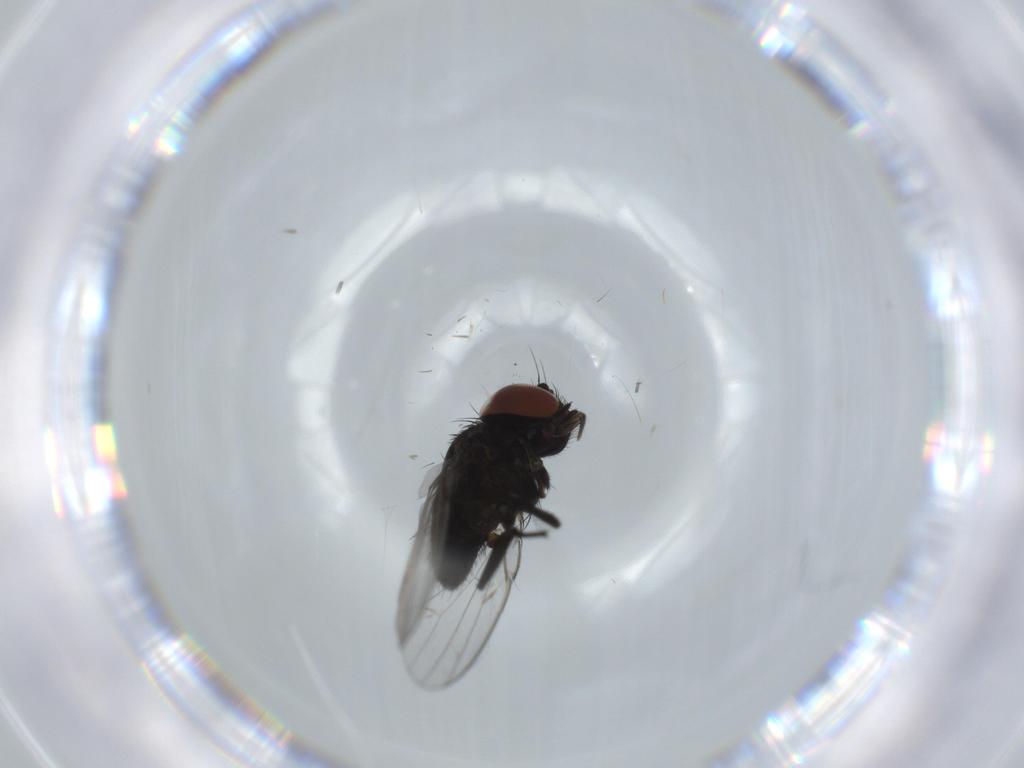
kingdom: Animalia
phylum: Arthropoda
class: Insecta
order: Diptera
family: Milichiidae
